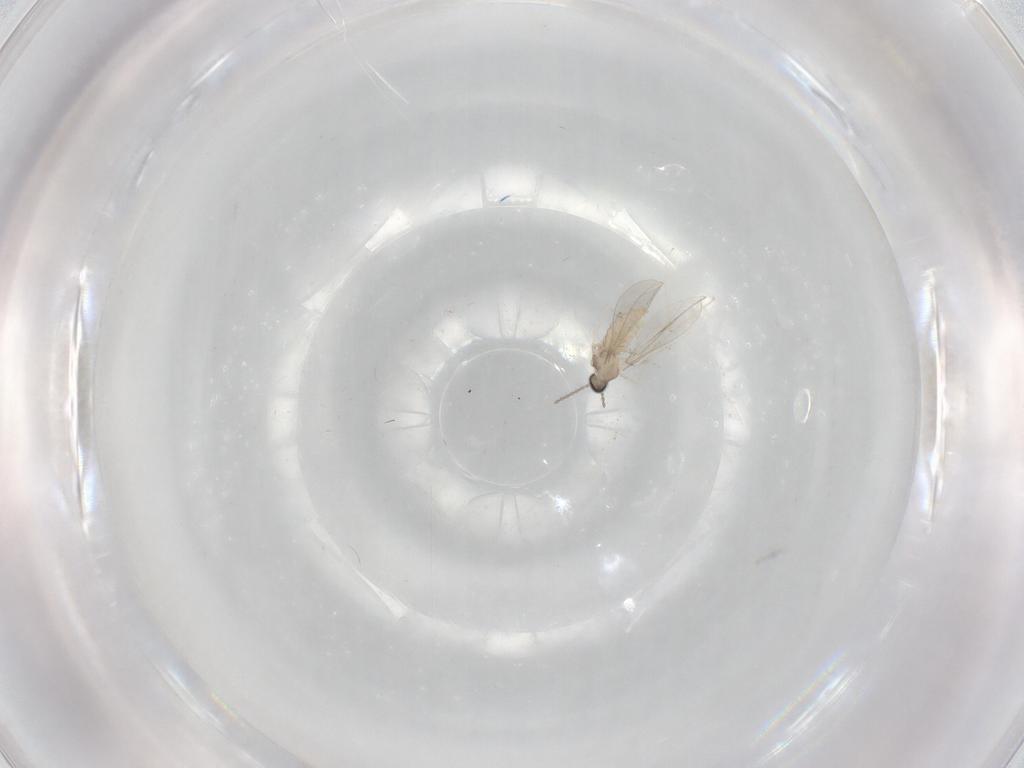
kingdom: Animalia
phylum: Arthropoda
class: Insecta
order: Diptera
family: Cecidomyiidae
